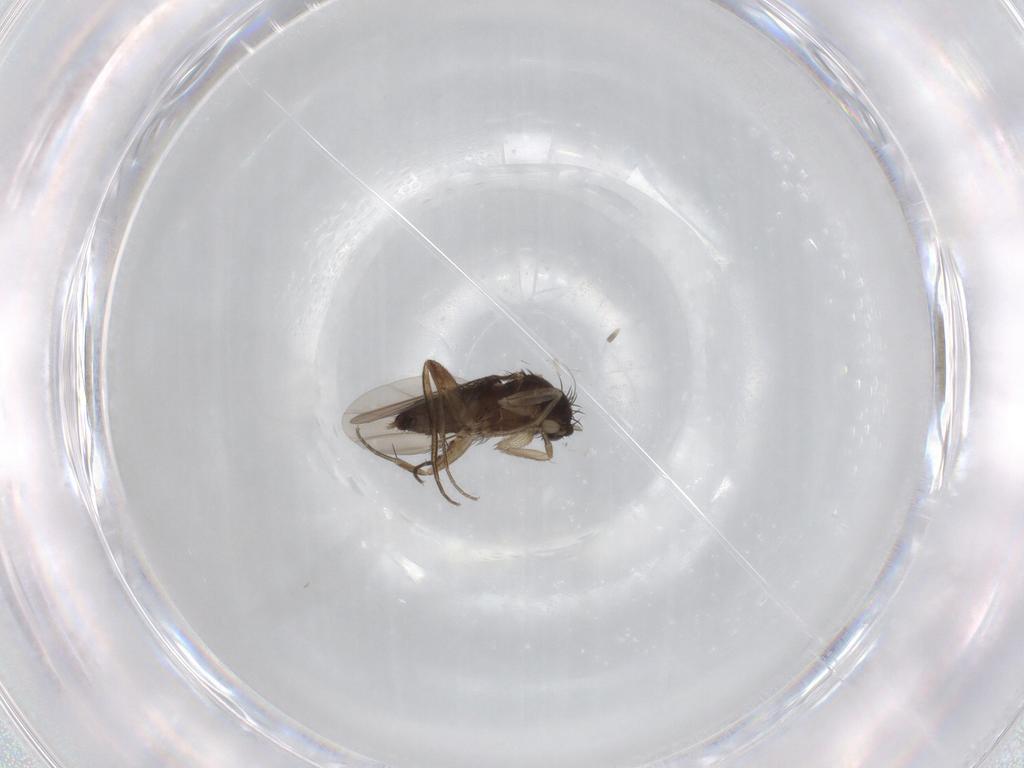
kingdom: Animalia
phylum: Arthropoda
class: Insecta
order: Diptera
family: Phoridae
